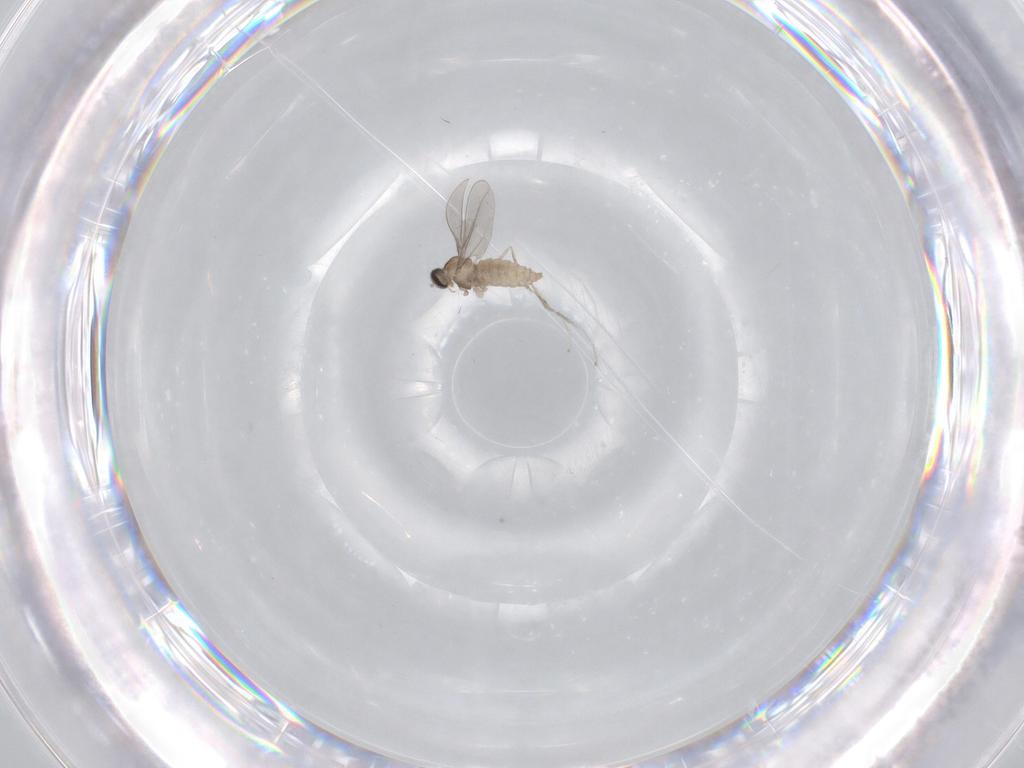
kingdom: Animalia
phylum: Arthropoda
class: Insecta
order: Diptera
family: Cecidomyiidae
